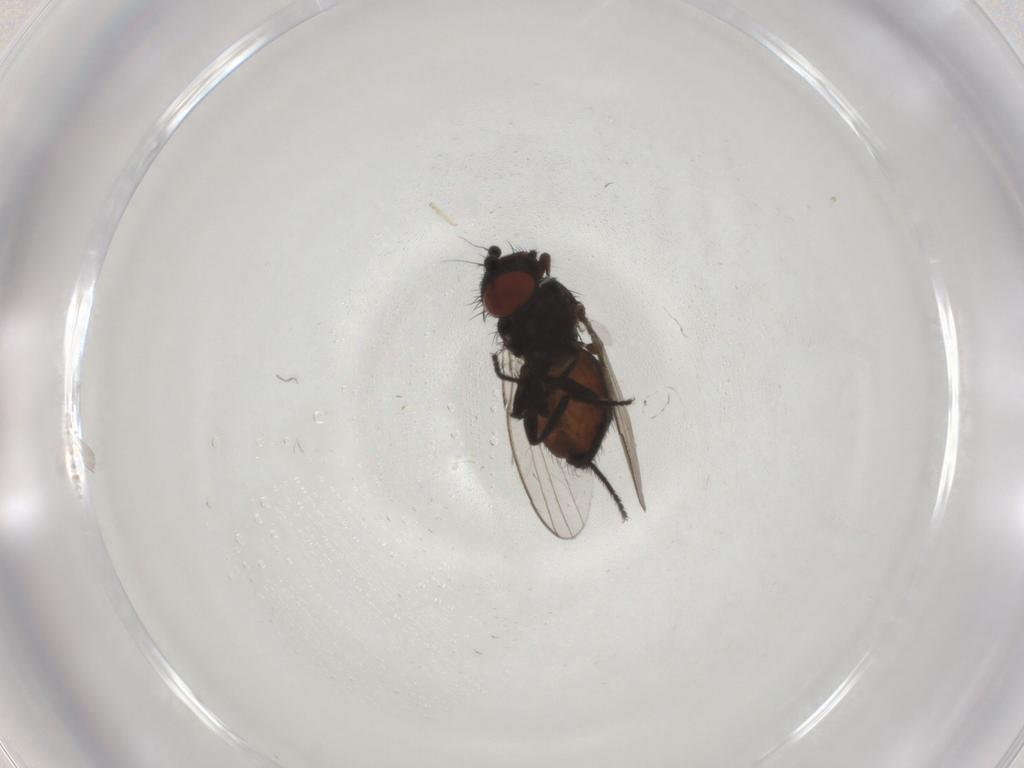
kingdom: Animalia
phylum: Arthropoda
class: Insecta
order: Diptera
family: Milichiidae
